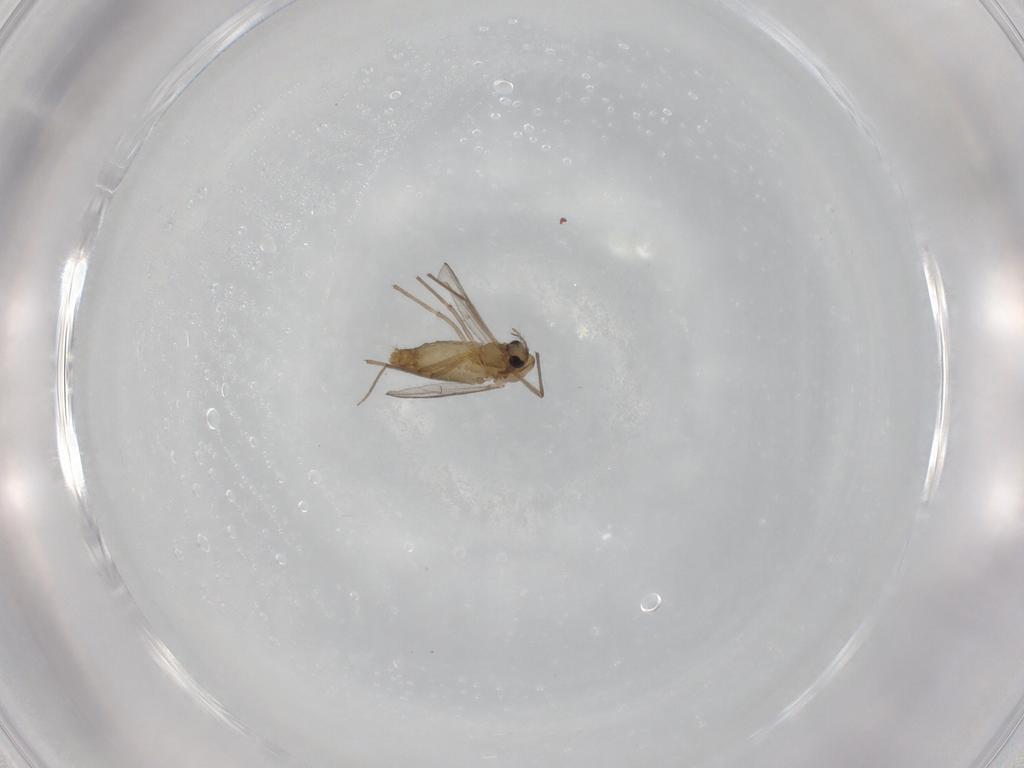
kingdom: Animalia
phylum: Arthropoda
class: Insecta
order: Diptera
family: Chironomidae
